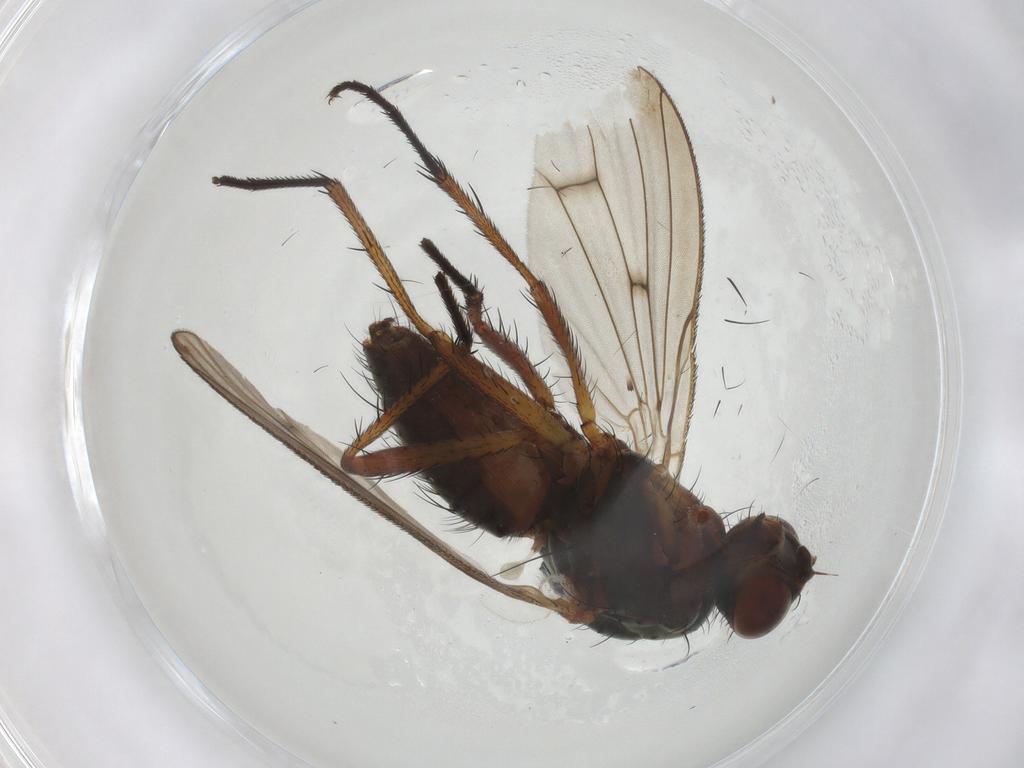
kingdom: Animalia
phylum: Arthropoda
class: Insecta
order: Diptera
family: Anthomyiidae
